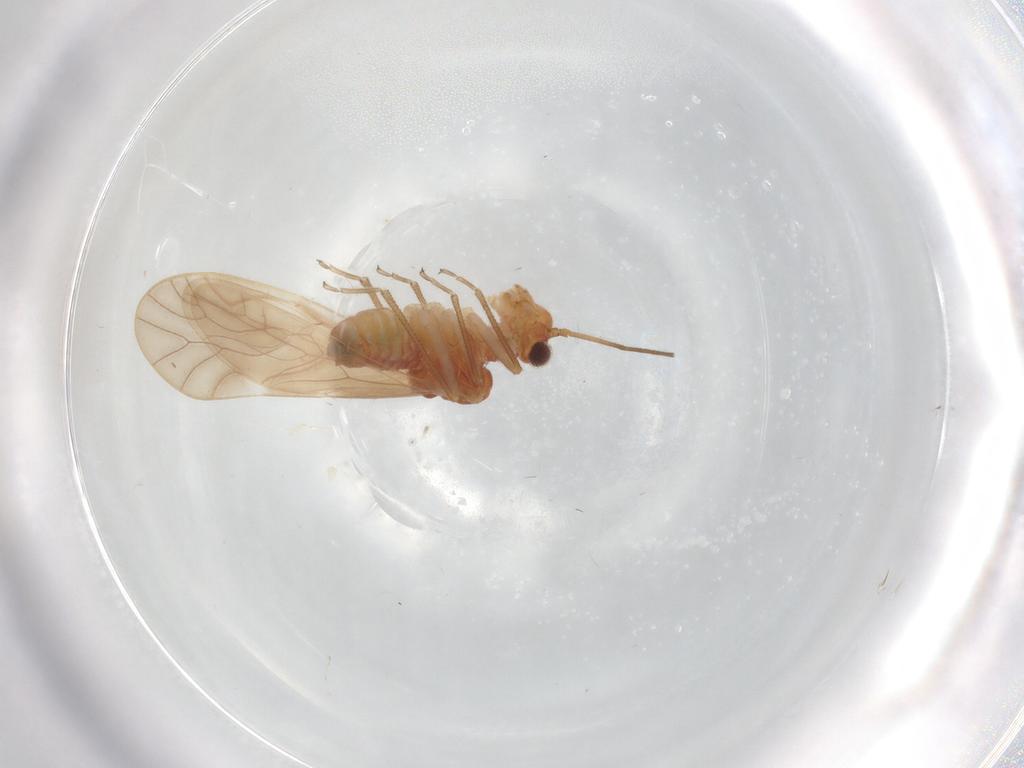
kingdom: Animalia
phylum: Arthropoda
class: Insecta
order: Psocodea
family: Caeciliusidae
